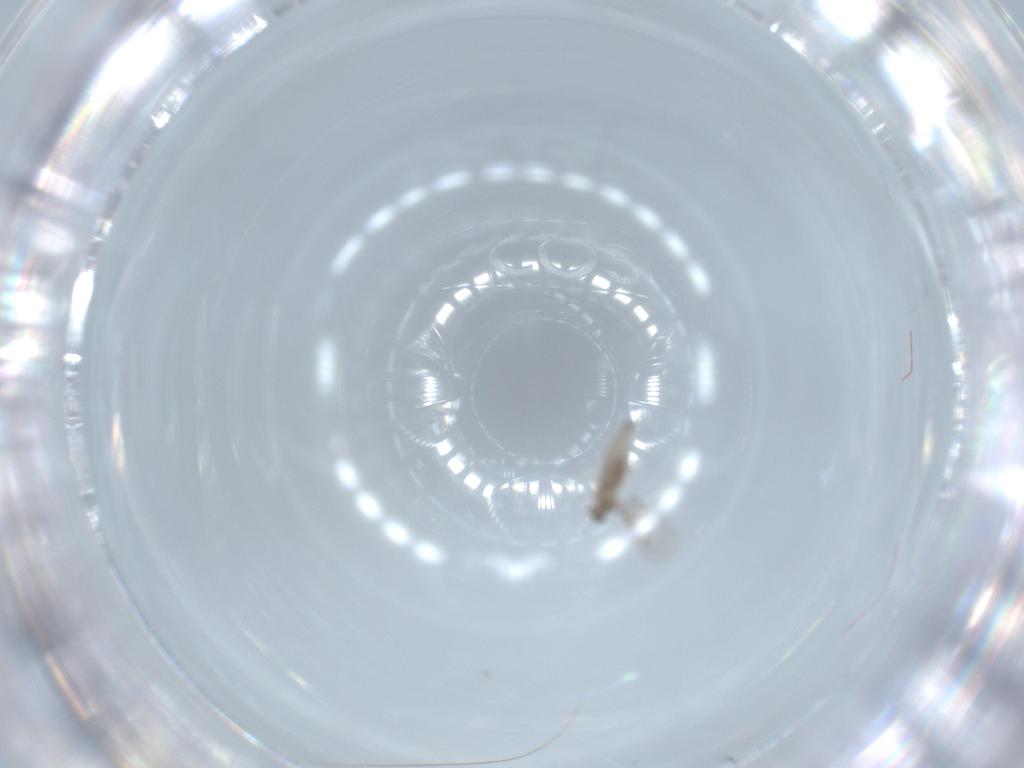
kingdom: Animalia
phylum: Arthropoda
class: Insecta
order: Diptera
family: Cecidomyiidae
